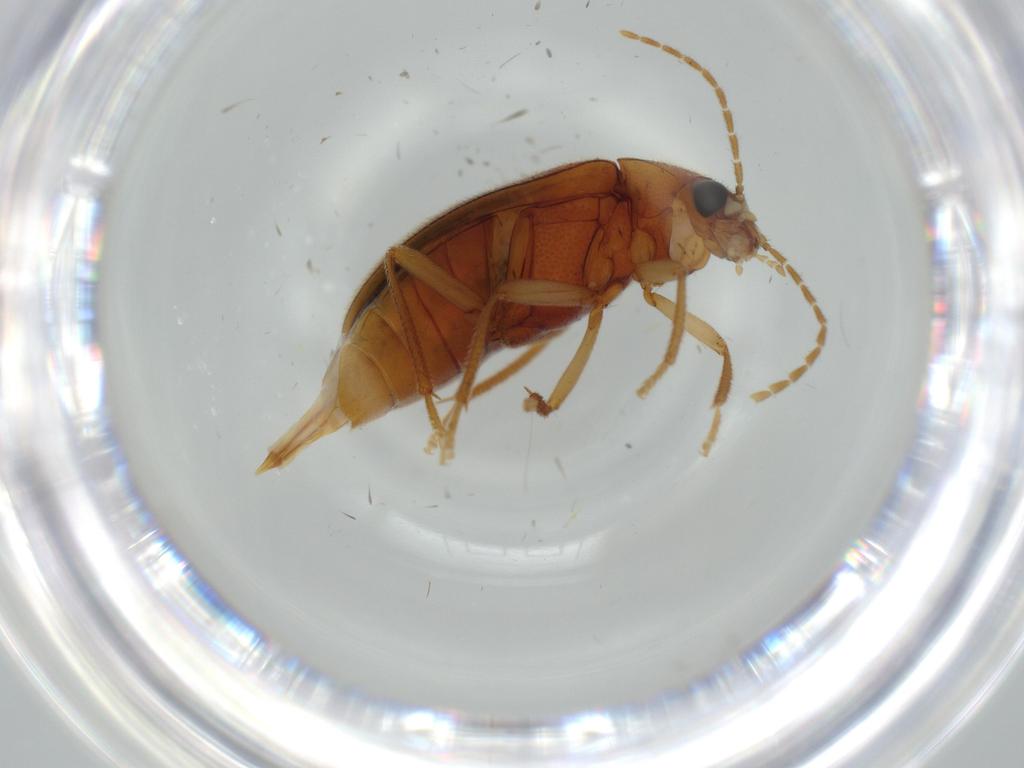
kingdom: Animalia
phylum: Arthropoda
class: Insecta
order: Coleoptera
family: Ptilodactylidae
